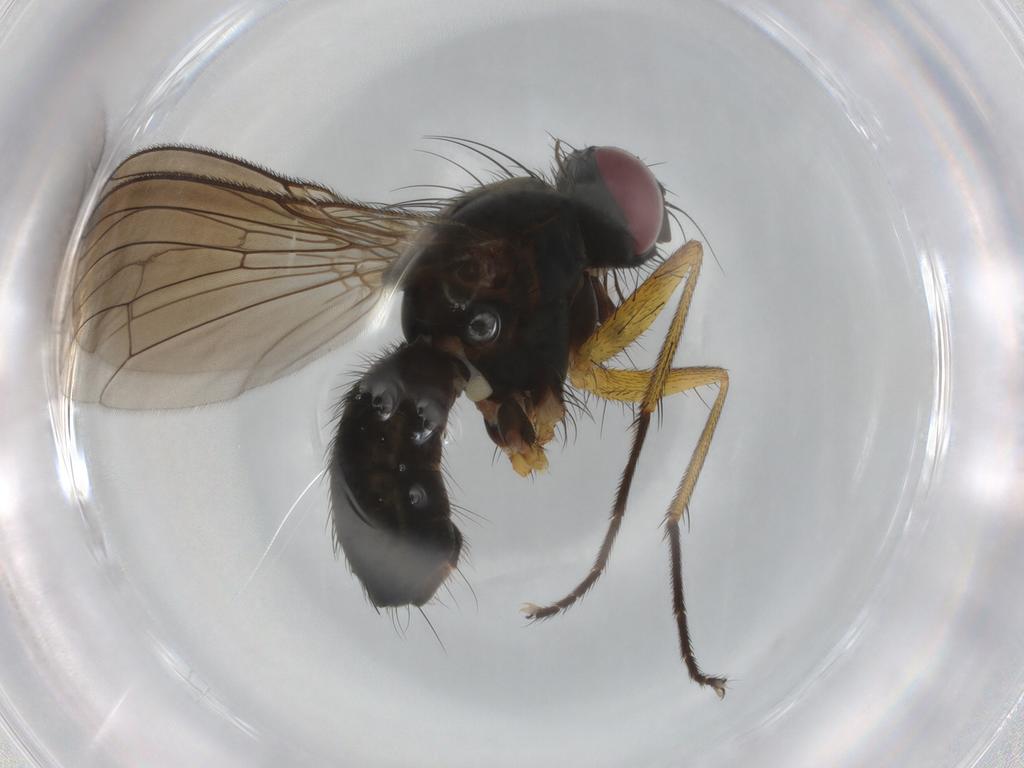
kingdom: Animalia
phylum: Arthropoda
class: Insecta
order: Diptera
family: Muscidae
